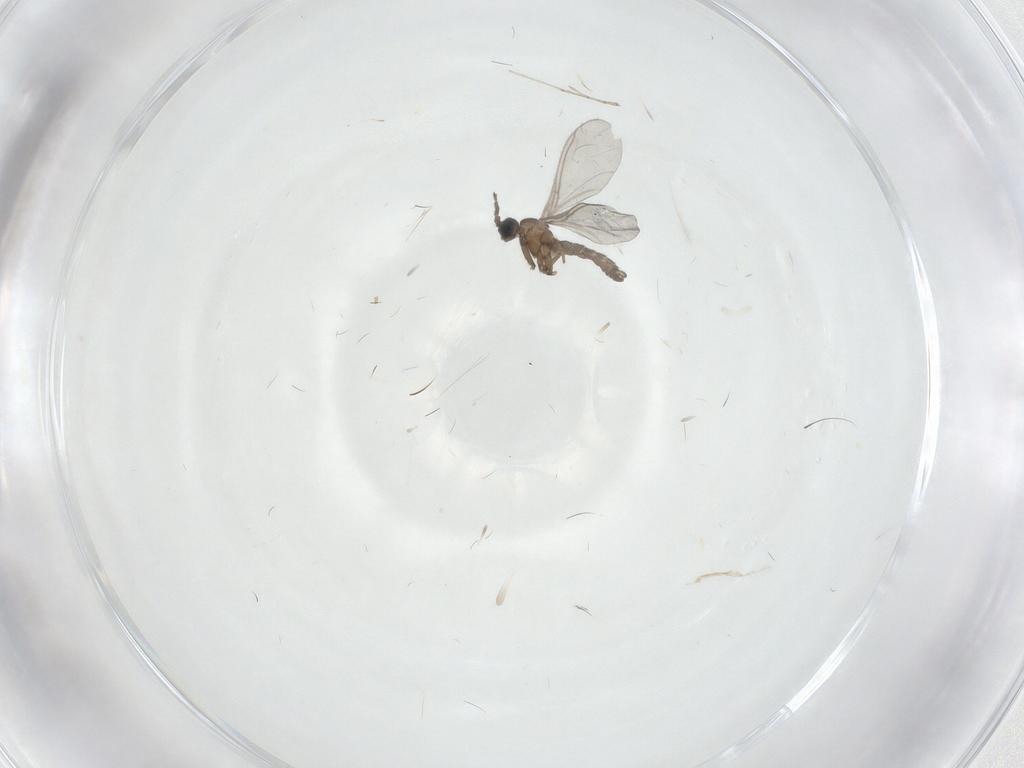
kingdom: Animalia
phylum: Arthropoda
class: Insecta
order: Diptera
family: Sciaridae
